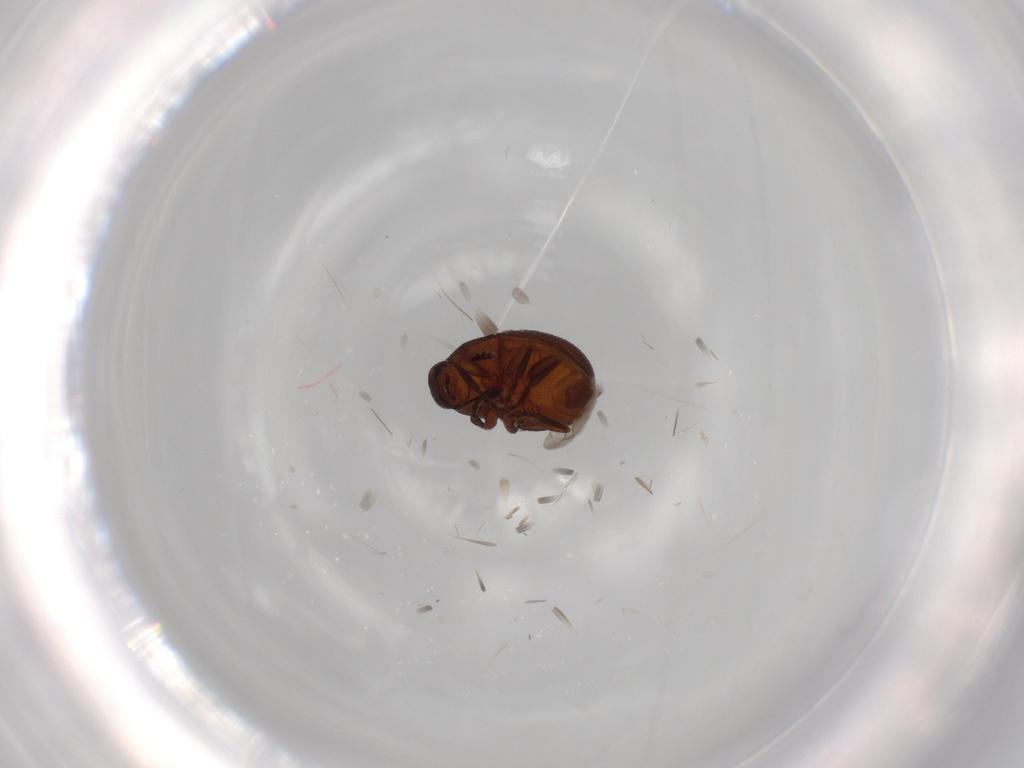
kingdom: Animalia
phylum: Arthropoda
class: Insecta
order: Coleoptera
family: Anthribidae
